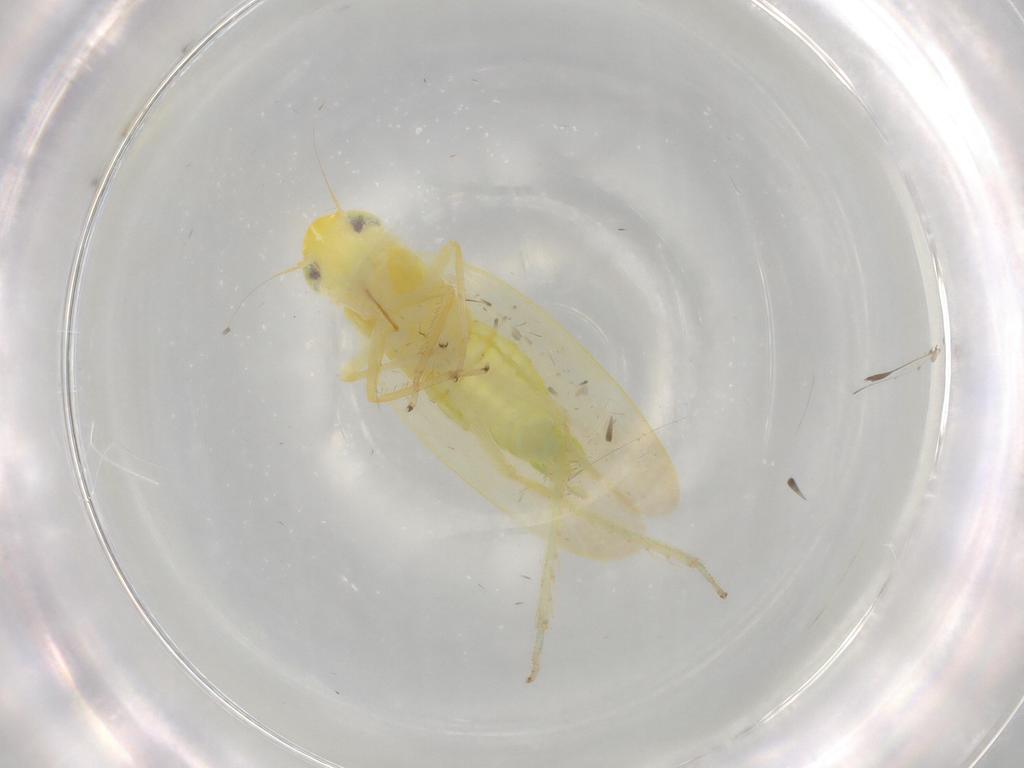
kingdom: Animalia
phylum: Arthropoda
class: Insecta
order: Hemiptera
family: Cicadellidae
